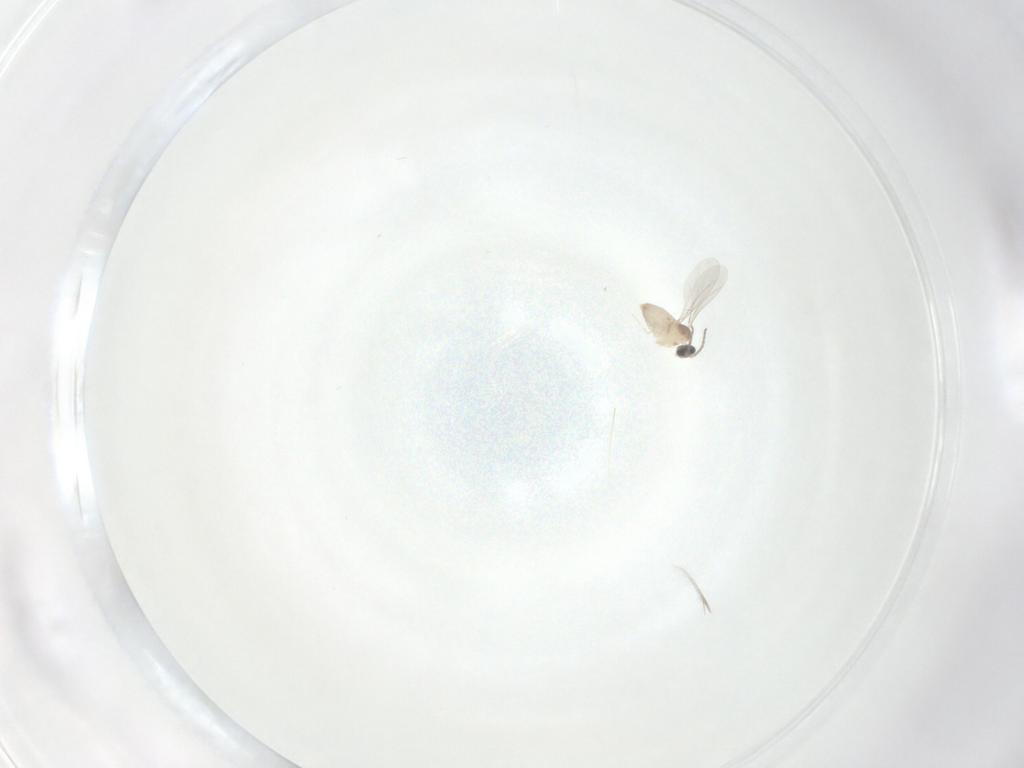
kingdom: Animalia
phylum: Arthropoda
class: Insecta
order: Diptera
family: Cecidomyiidae
